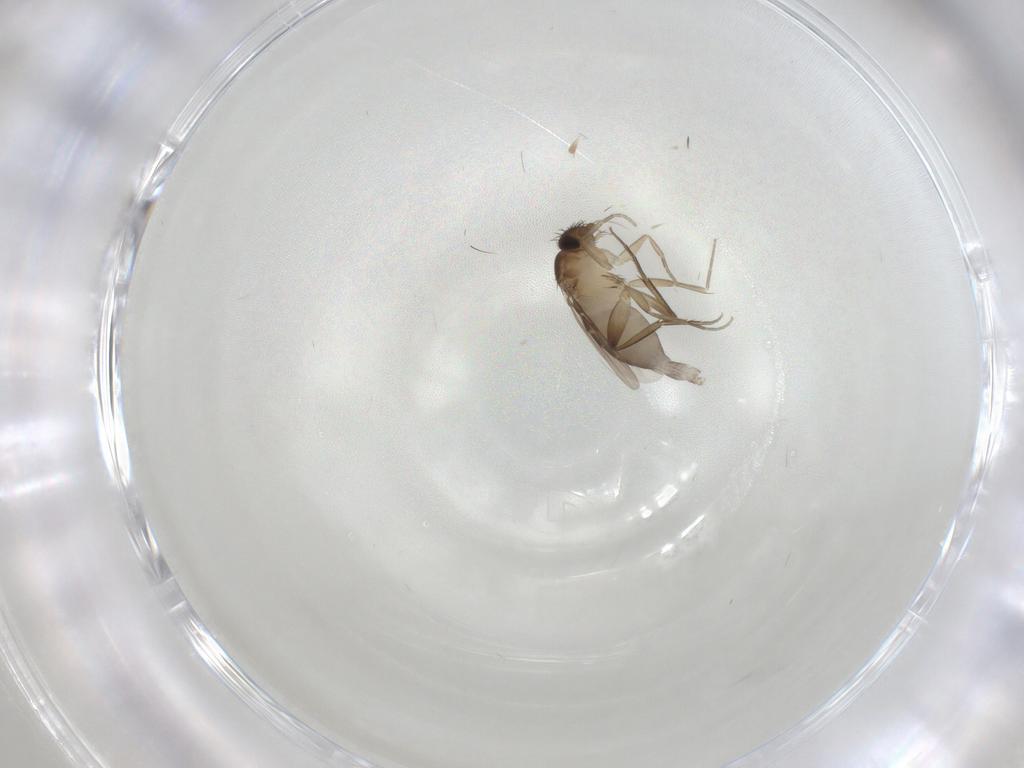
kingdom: Animalia
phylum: Arthropoda
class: Insecta
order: Diptera
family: Phoridae
